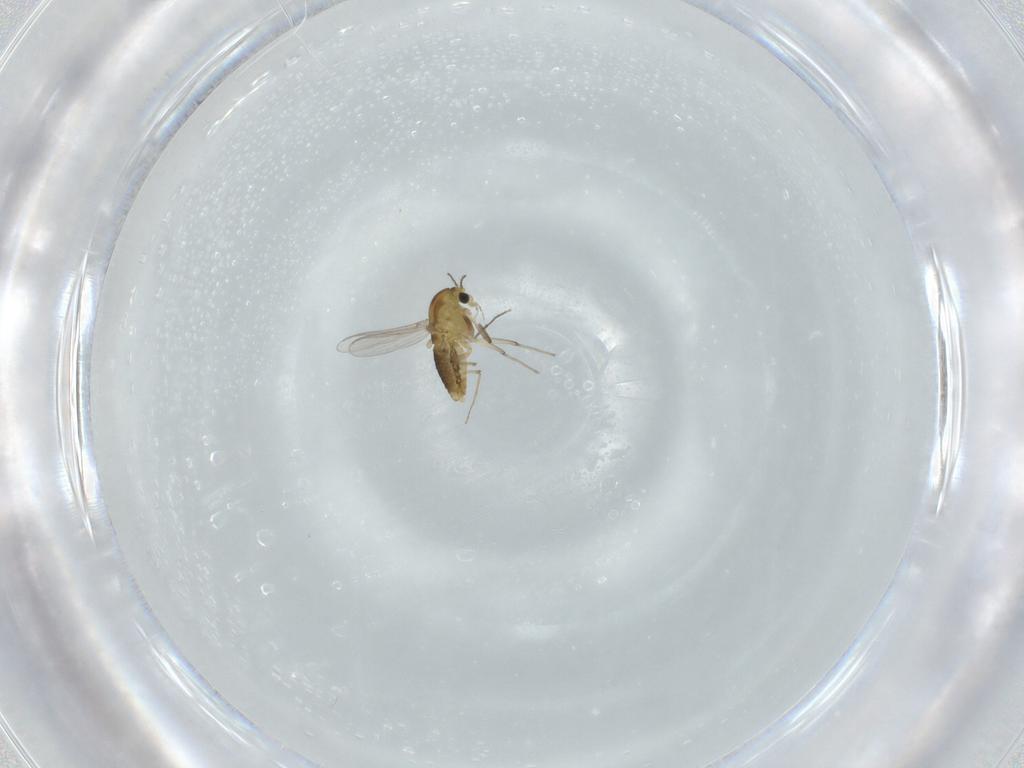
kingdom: Animalia
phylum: Arthropoda
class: Insecta
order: Diptera
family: Chironomidae
